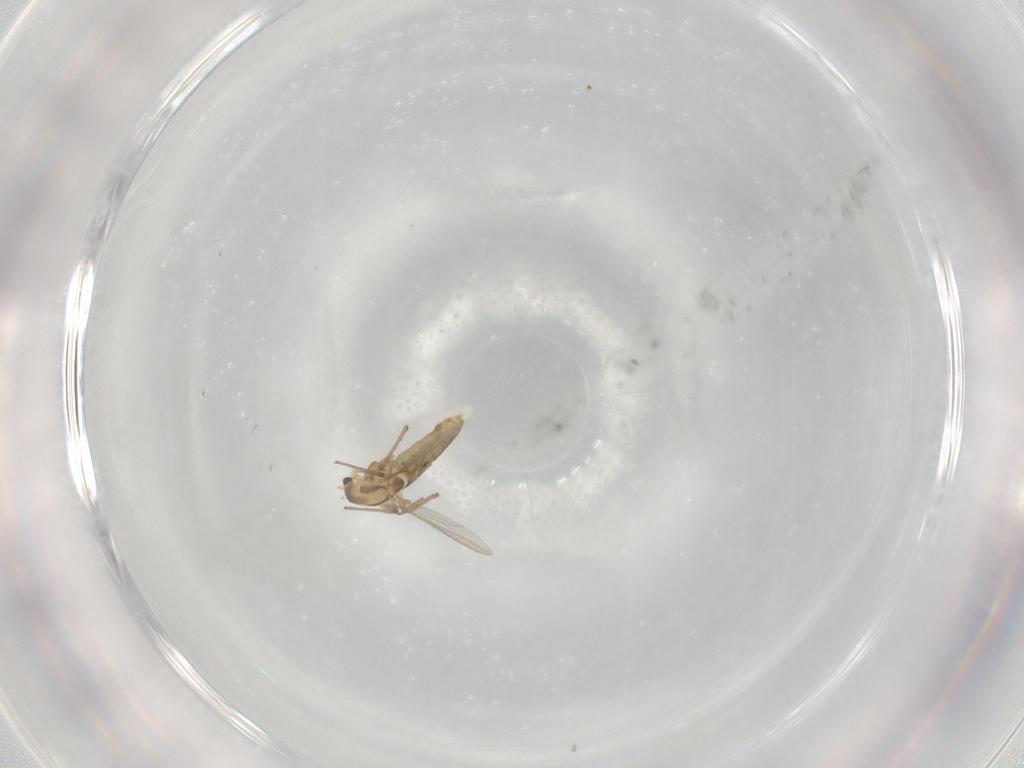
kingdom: Animalia
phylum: Arthropoda
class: Insecta
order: Diptera
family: Chironomidae
